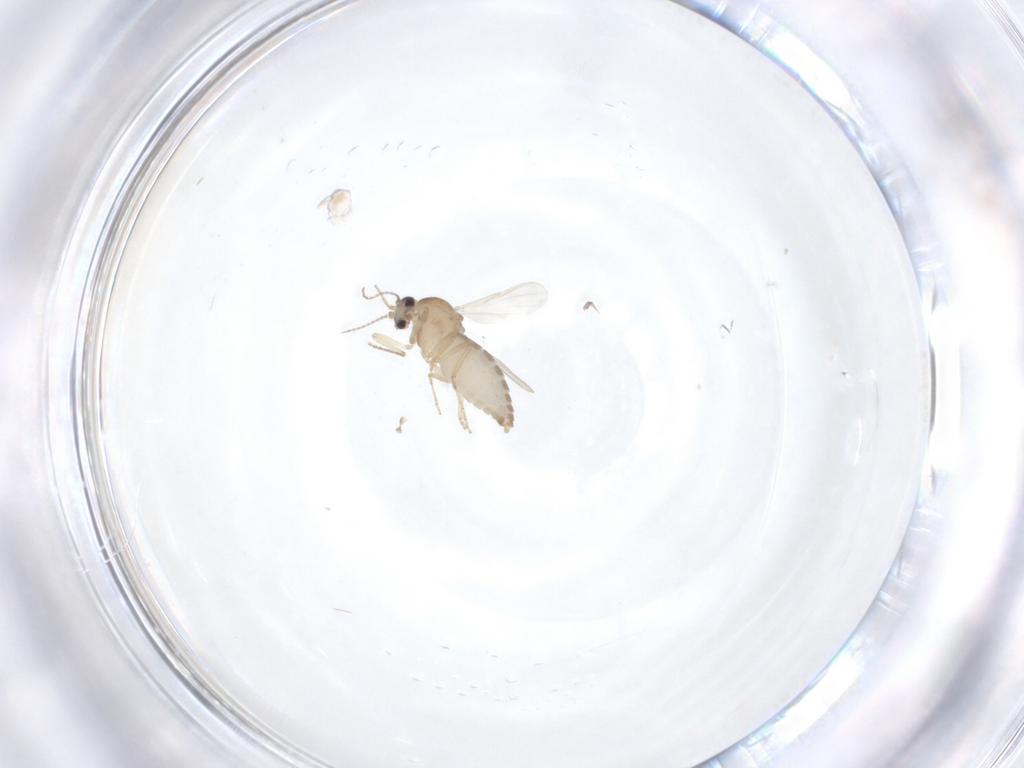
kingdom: Animalia
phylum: Arthropoda
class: Insecta
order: Diptera
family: Ceratopogonidae
